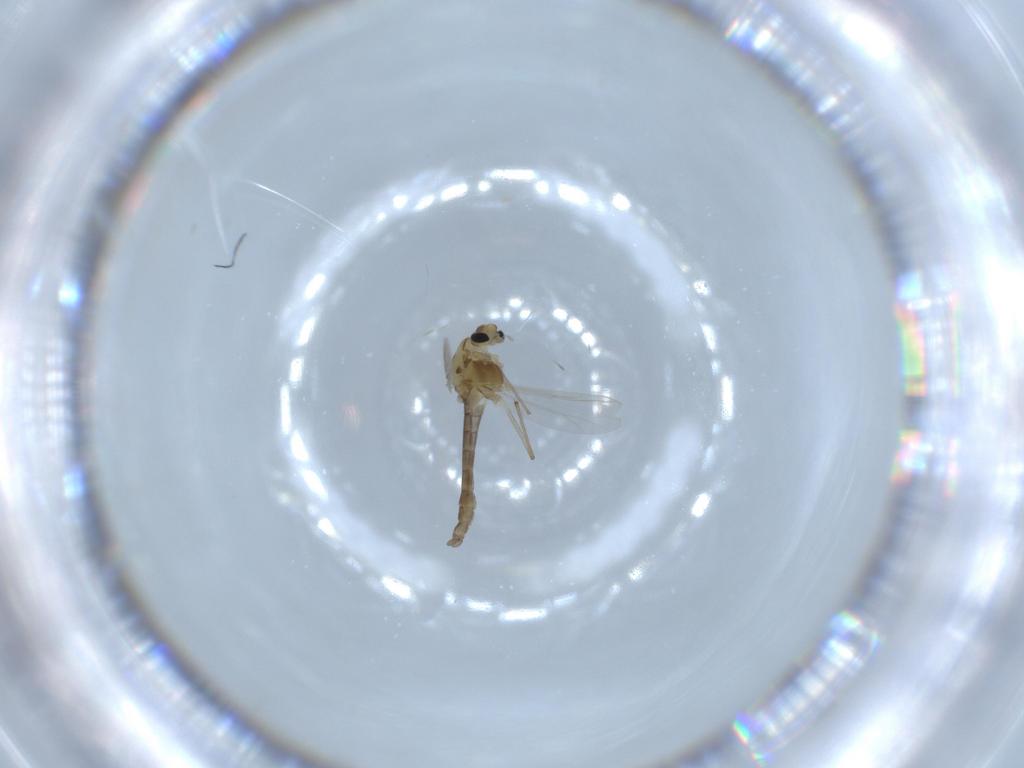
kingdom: Animalia
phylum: Arthropoda
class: Insecta
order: Diptera
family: Chironomidae
